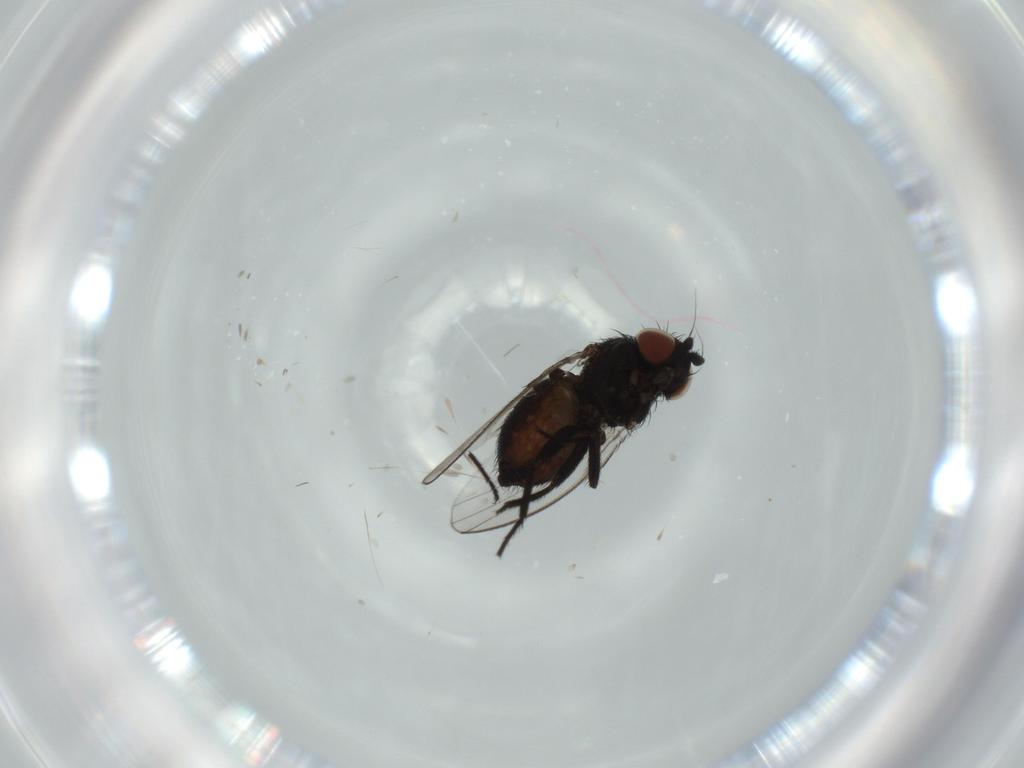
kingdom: Animalia
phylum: Arthropoda
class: Insecta
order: Diptera
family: Milichiidae
